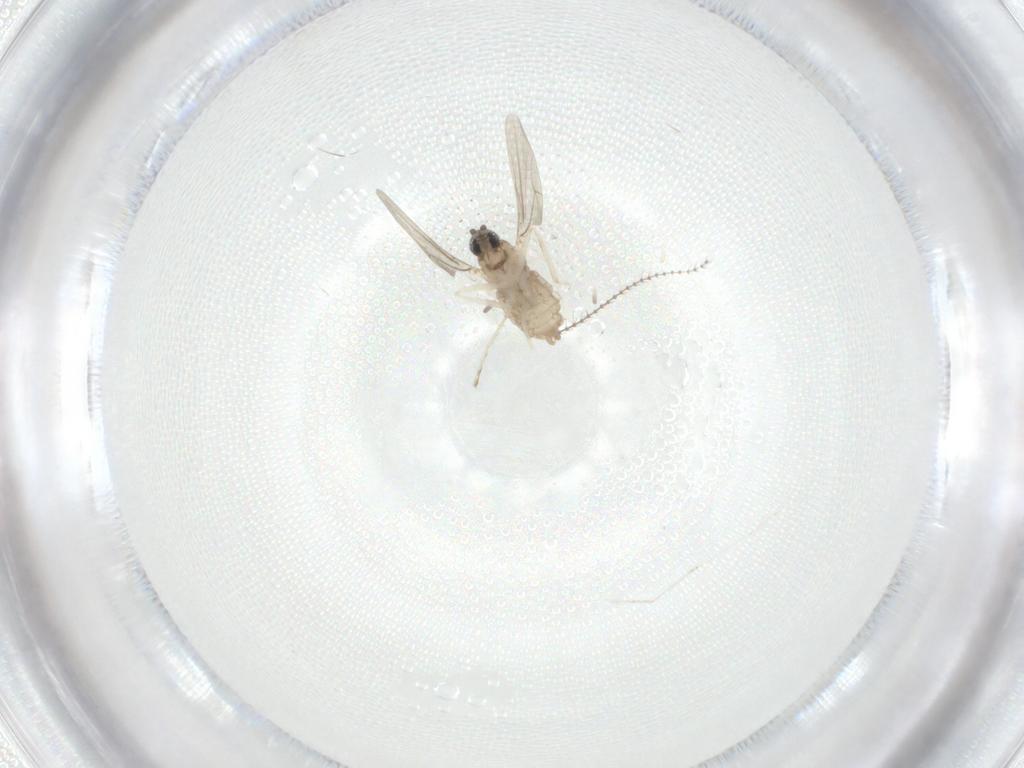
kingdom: Animalia
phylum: Arthropoda
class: Insecta
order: Diptera
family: Cecidomyiidae
